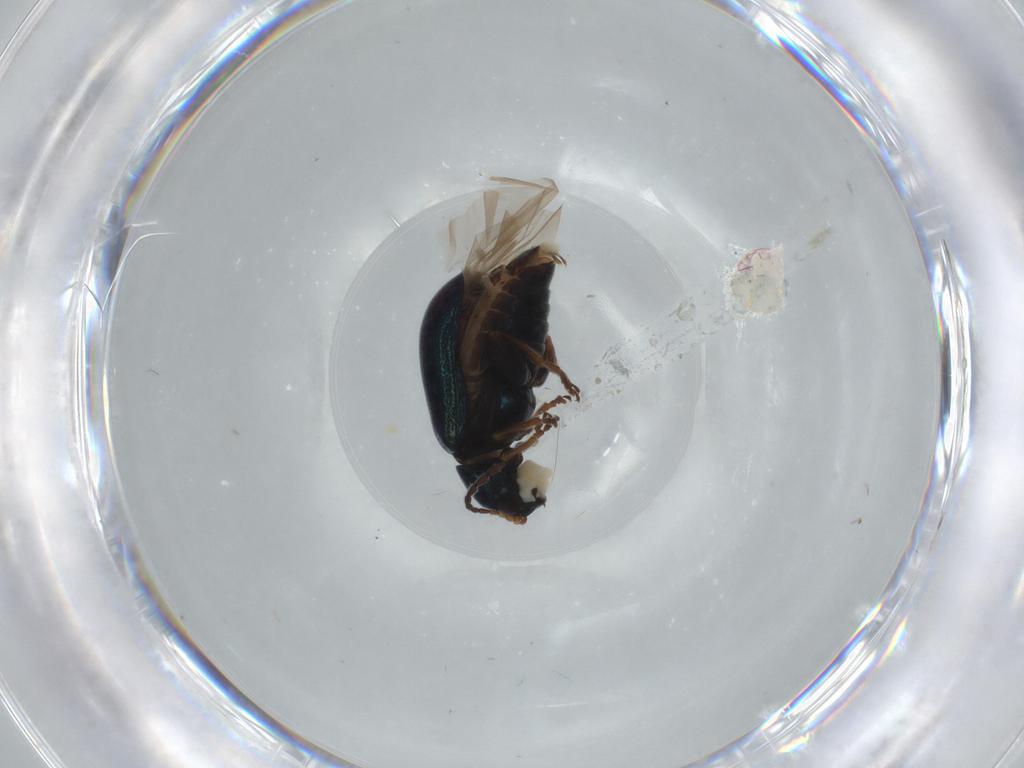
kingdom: Animalia
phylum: Arthropoda
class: Insecta
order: Coleoptera
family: Chrysomelidae
